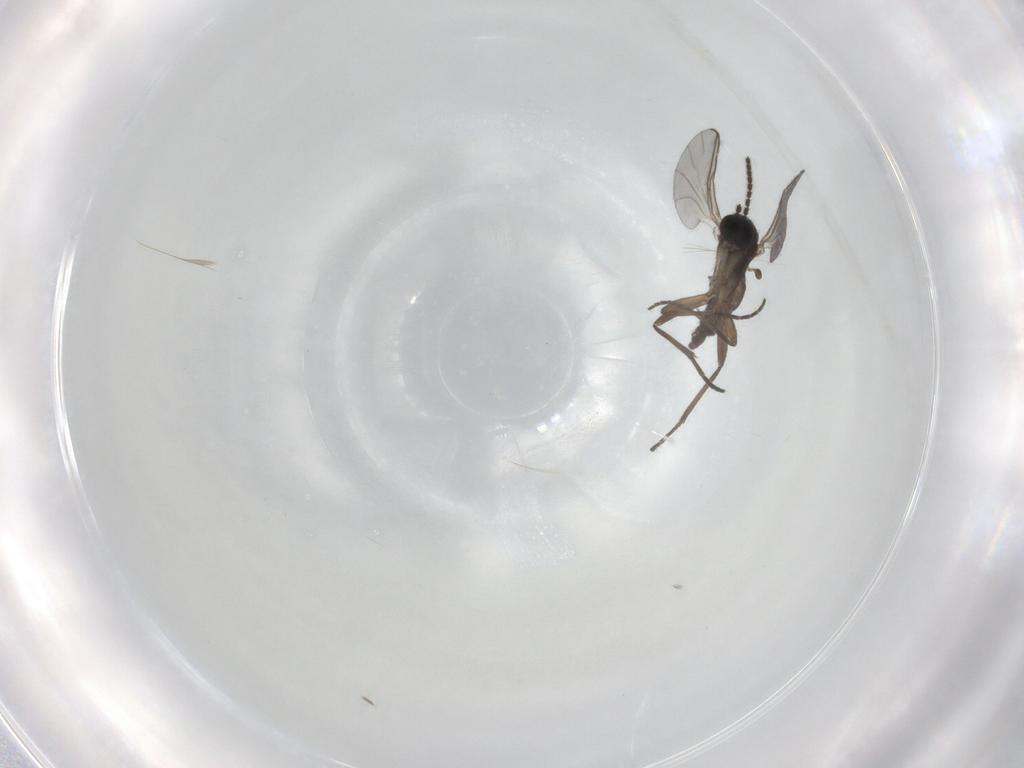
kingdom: Animalia
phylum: Arthropoda
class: Insecta
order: Diptera
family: Sciaridae
